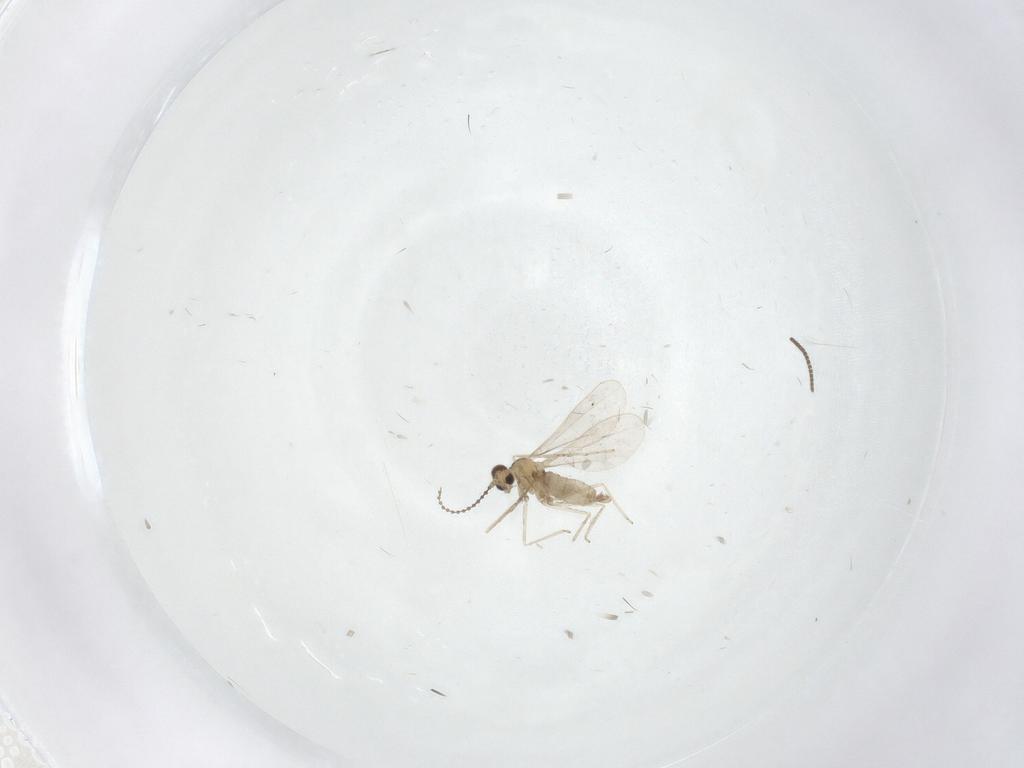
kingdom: Animalia
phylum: Arthropoda
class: Insecta
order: Diptera
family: Cecidomyiidae
